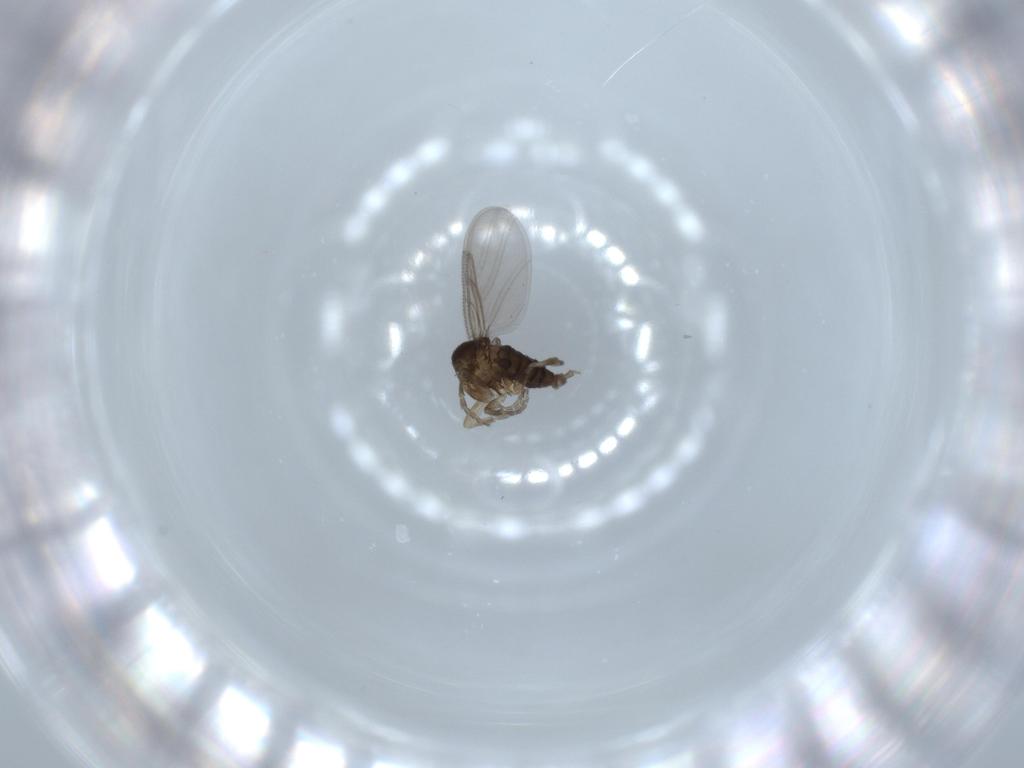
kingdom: Animalia
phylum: Arthropoda
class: Insecta
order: Diptera
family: Phoridae
